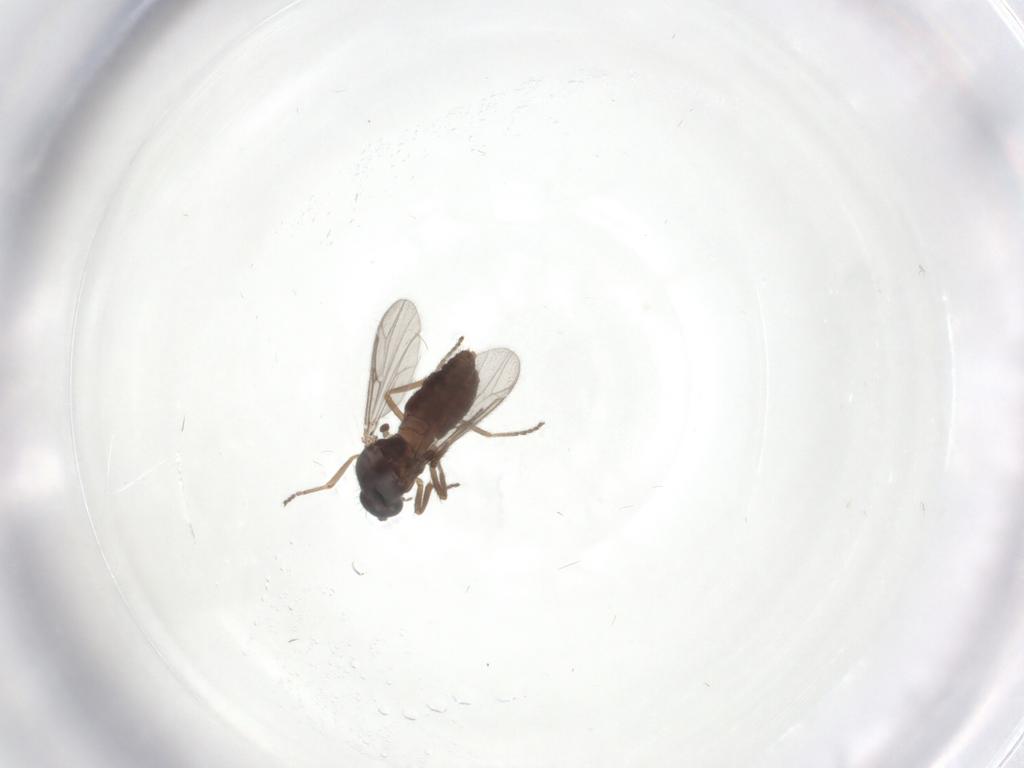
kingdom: Animalia
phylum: Arthropoda
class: Insecta
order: Diptera
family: Ceratopogonidae
